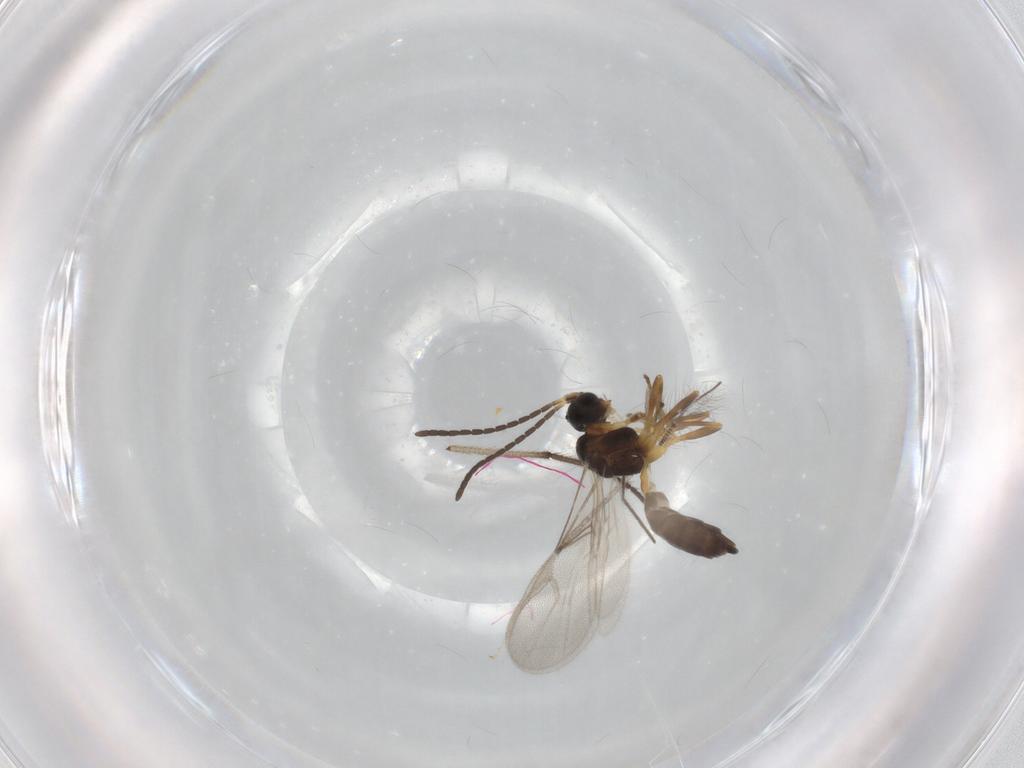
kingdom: Animalia
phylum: Arthropoda
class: Insecta
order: Hymenoptera
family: Braconidae
